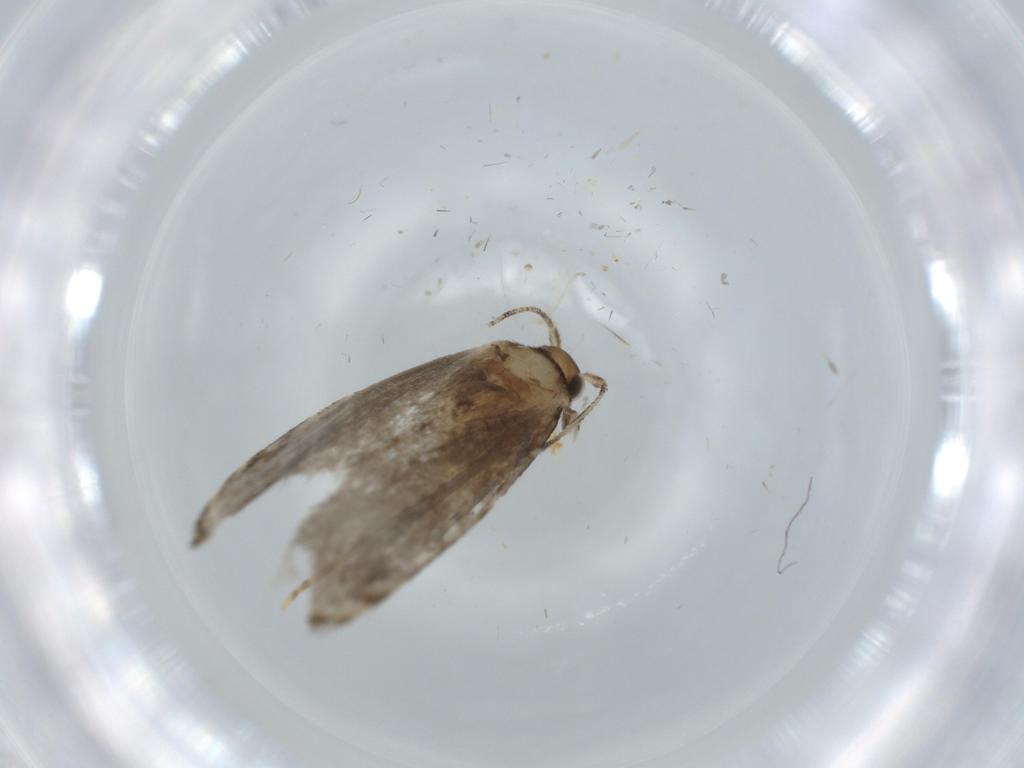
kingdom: Animalia
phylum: Arthropoda
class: Insecta
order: Lepidoptera
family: Tineidae
